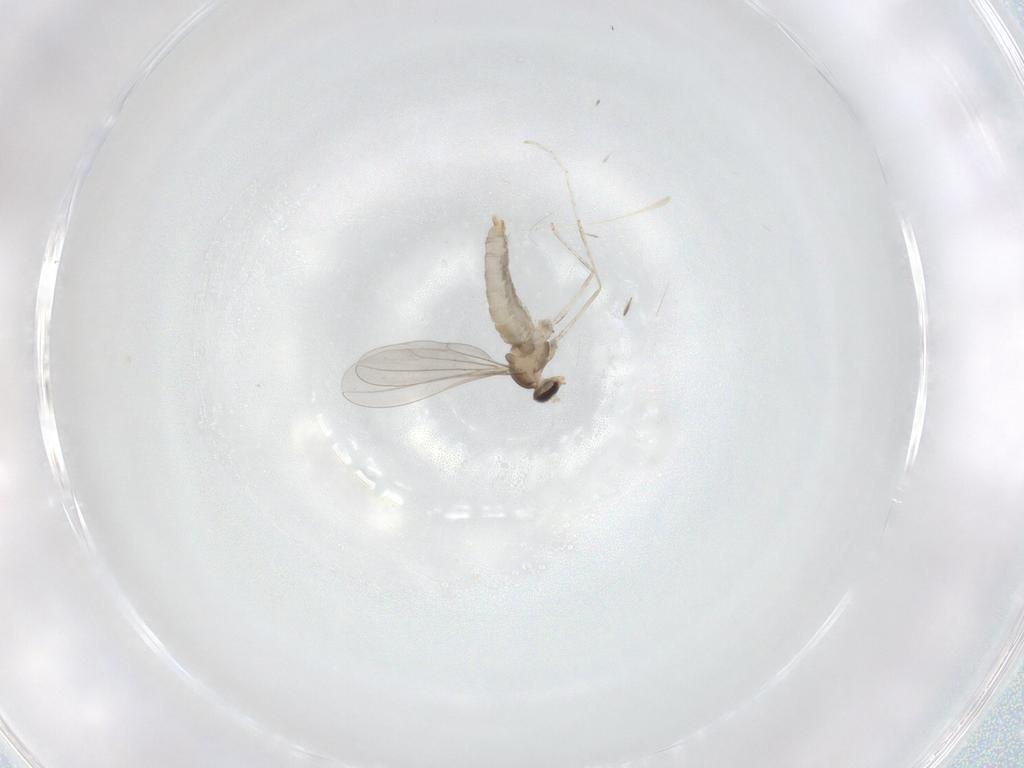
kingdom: Animalia
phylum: Arthropoda
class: Insecta
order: Diptera
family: Cecidomyiidae
